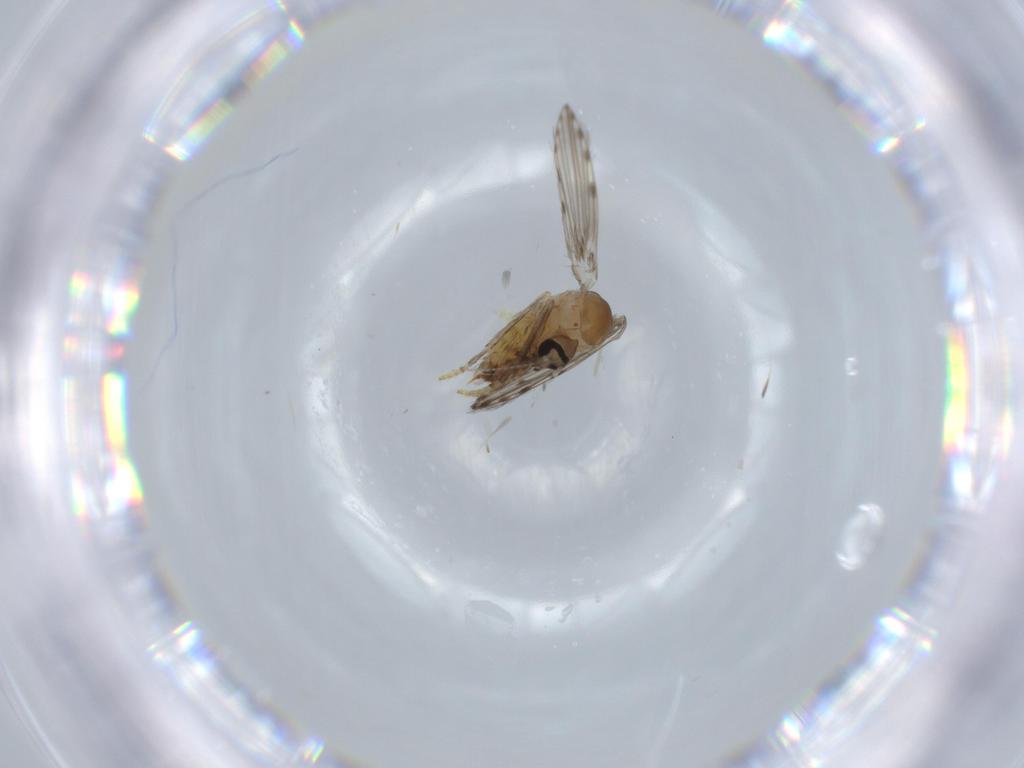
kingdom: Animalia
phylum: Arthropoda
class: Insecta
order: Diptera
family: Psychodidae
